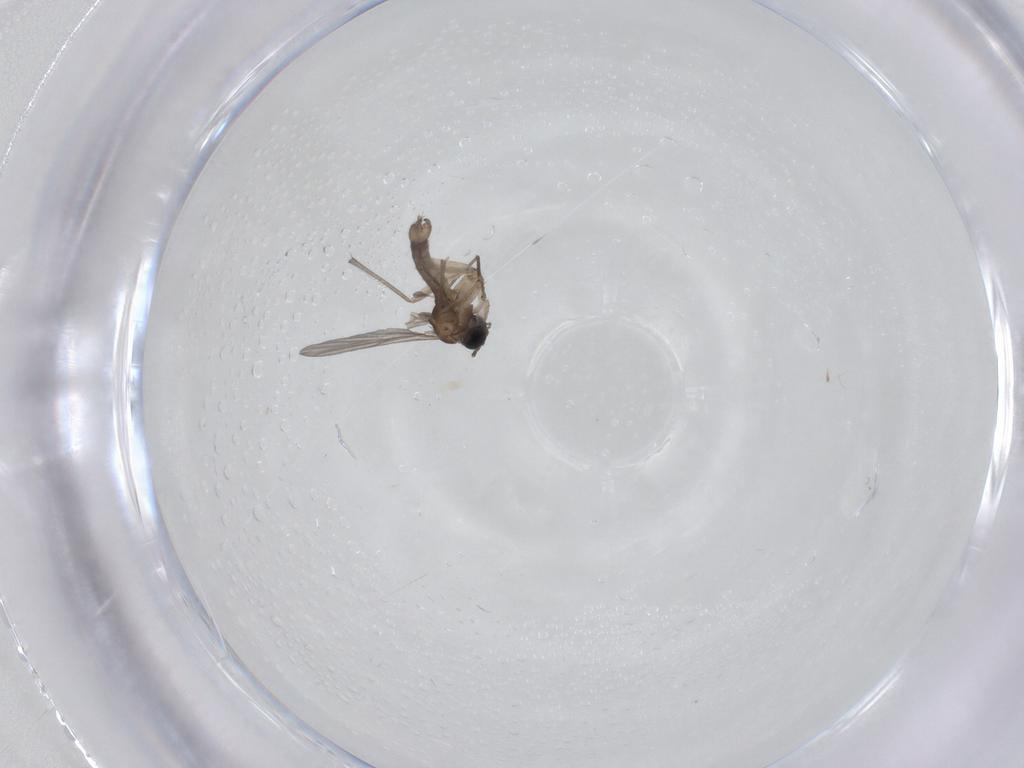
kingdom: Animalia
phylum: Arthropoda
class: Insecta
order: Diptera
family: Sciaridae
